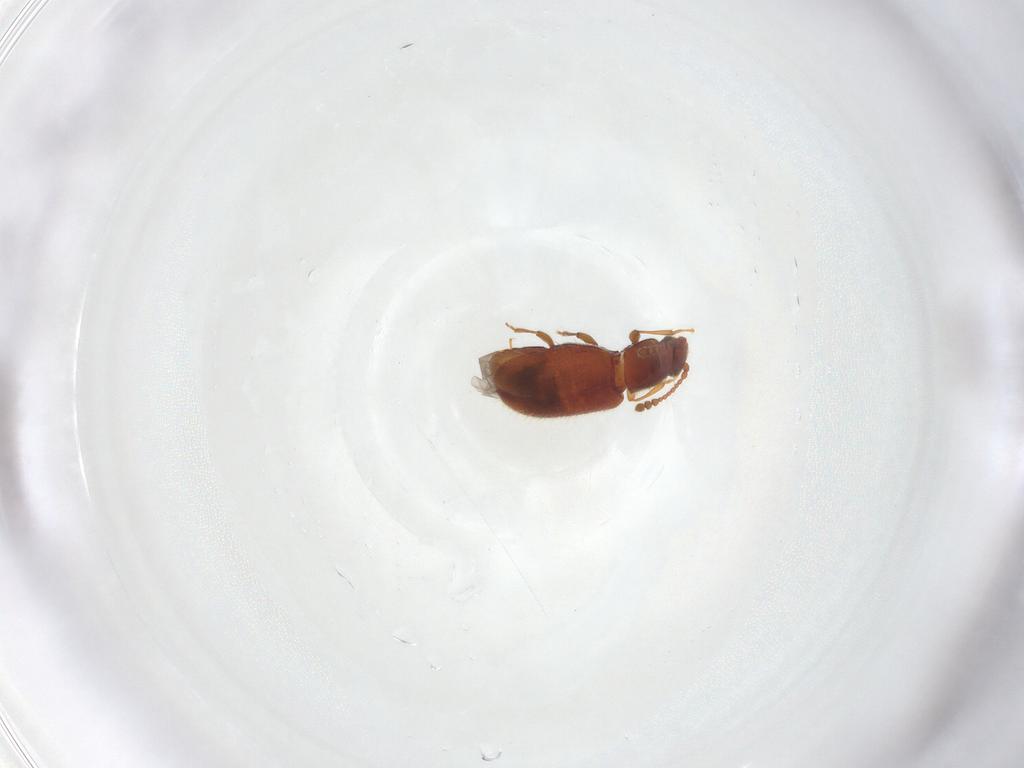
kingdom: Animalia
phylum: Arthropoda
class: Insecta
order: Coleoptera
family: Cryptophagidae
